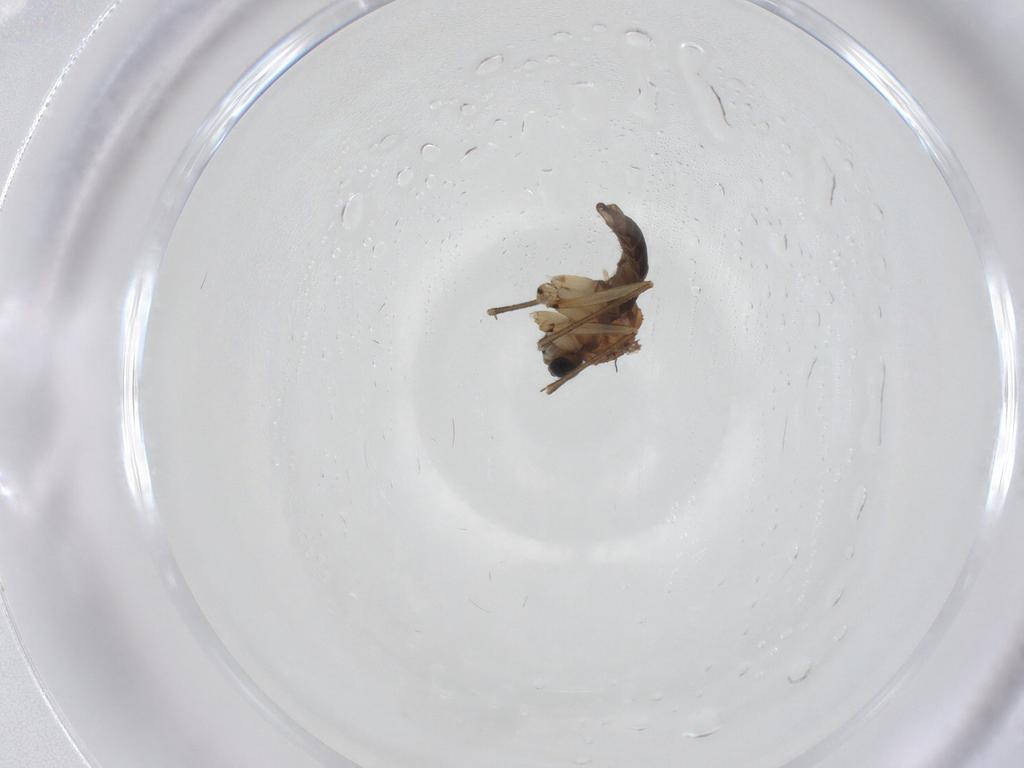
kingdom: Animalia
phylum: Arthropoda
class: Insecta
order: Diptera
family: Sciaridae
